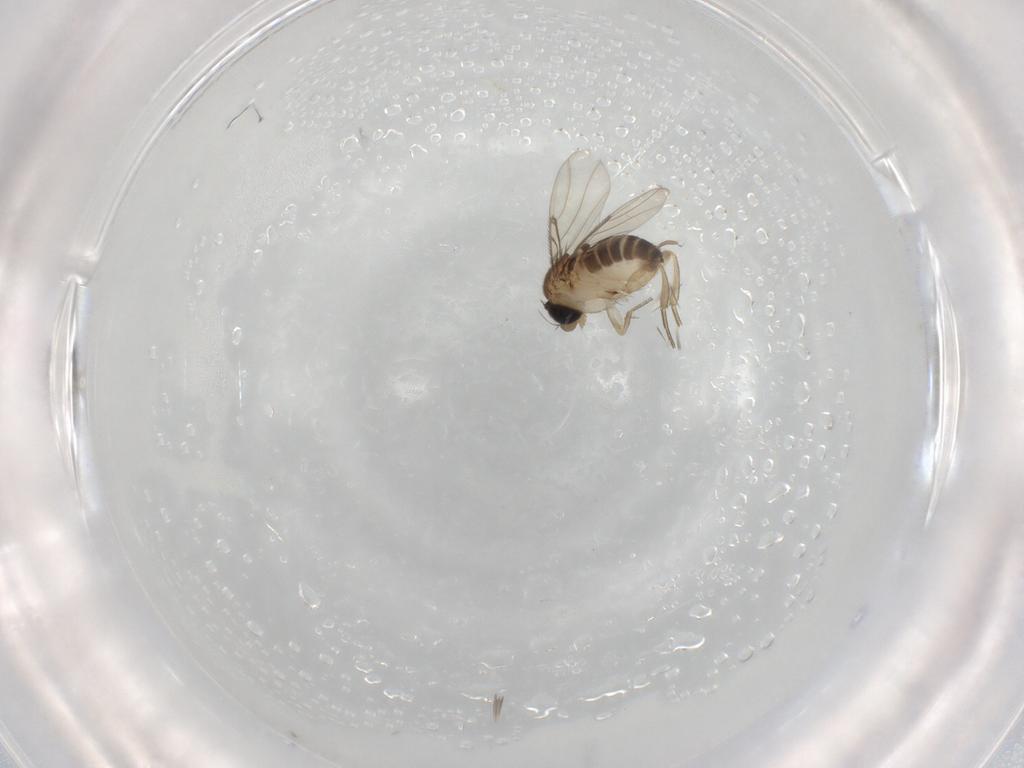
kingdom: Animalia
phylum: Arthropoda
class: Insecta
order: Diptera
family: Phoridae
